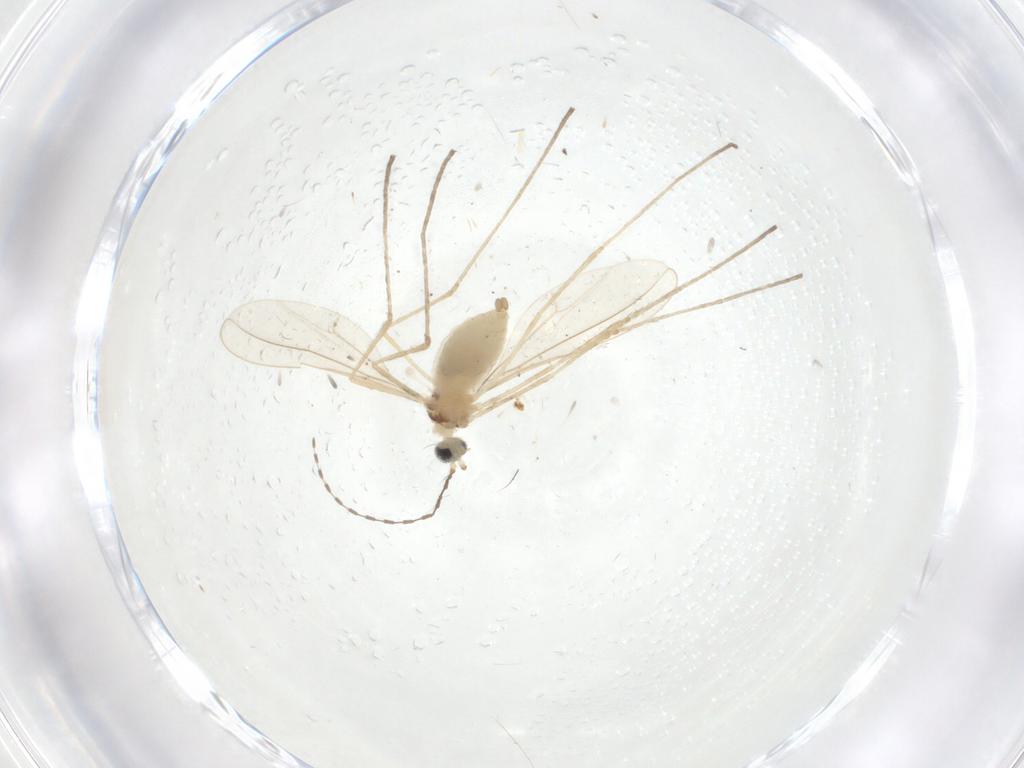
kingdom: Animalia
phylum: Arthropoda
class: Insecta
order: Diptera
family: Cecidomyiidae
